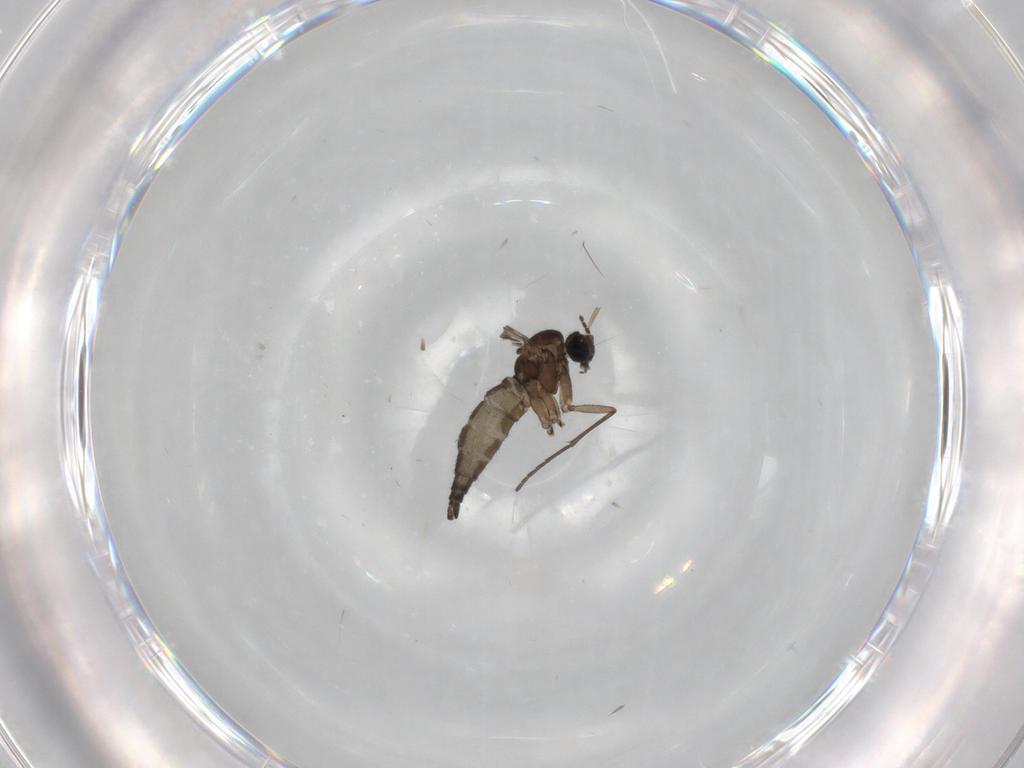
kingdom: Animalia
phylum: Arthropoda
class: Insecta
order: Diptera
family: Sciaridae
